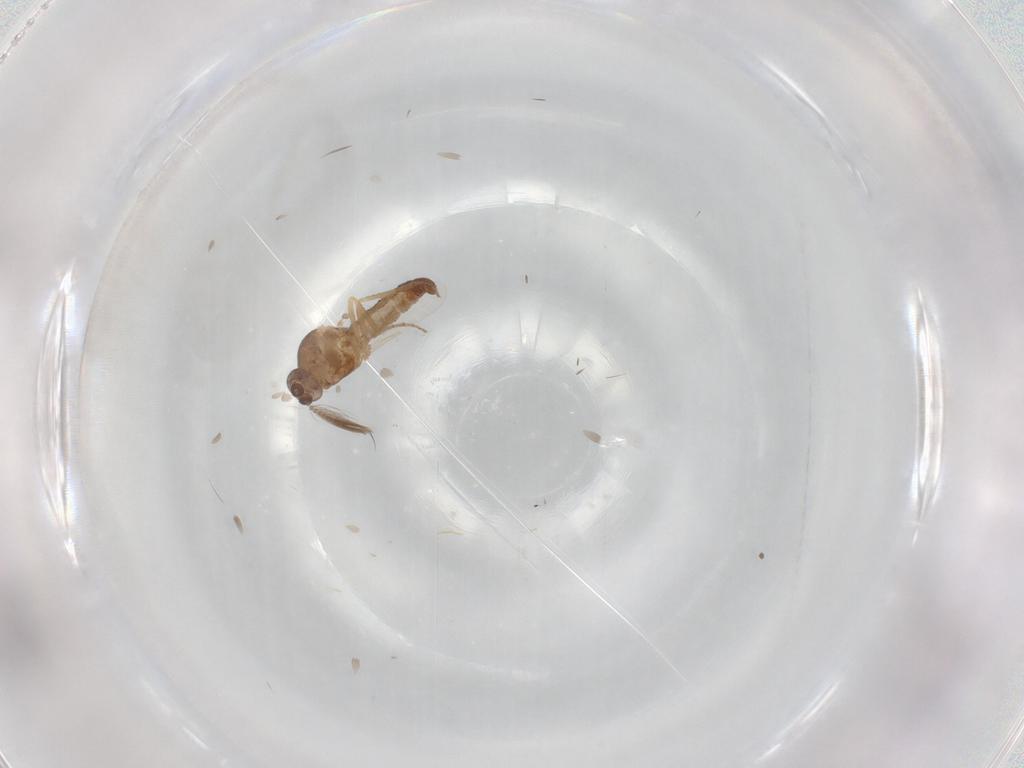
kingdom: Animalia
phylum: Arthropoda
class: Insecta
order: Diptera
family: Ceratopogonidae
